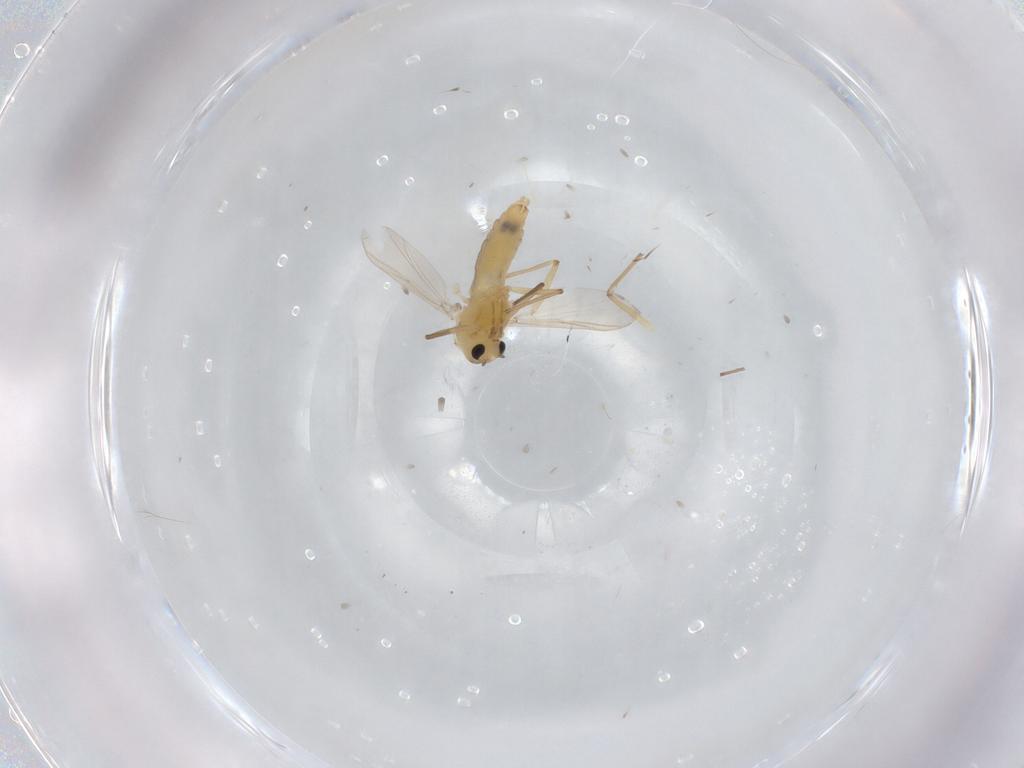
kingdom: Animalia
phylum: Arthropoda
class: Insecta
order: Diptera
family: Chironomidae
